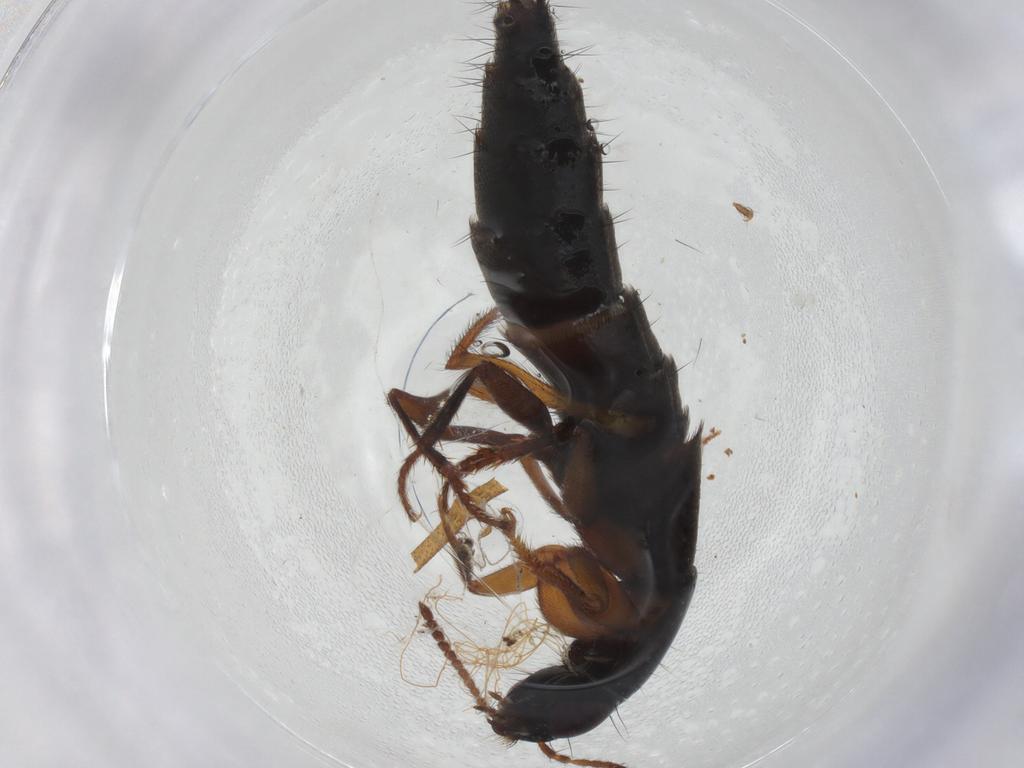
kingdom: Animalia
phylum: Arthropoda
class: Insecta
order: Coleoptera
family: Staphylinidae
